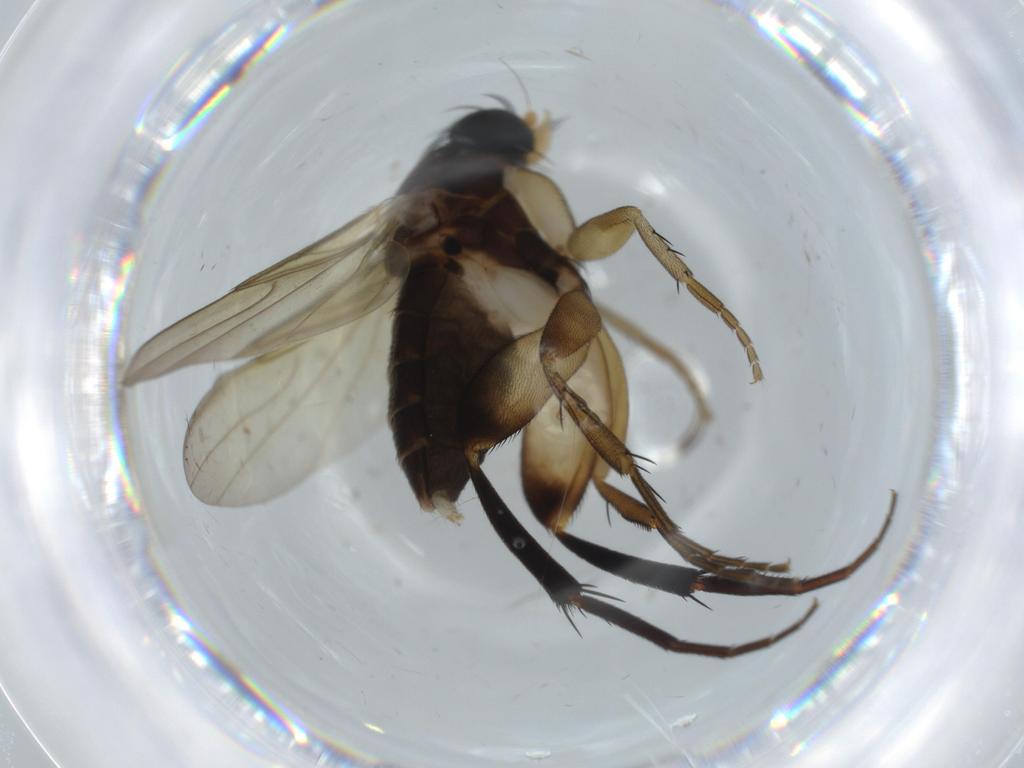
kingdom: Animalia
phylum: Arthropoda
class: Insecta
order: Diptera
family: Phoridae
